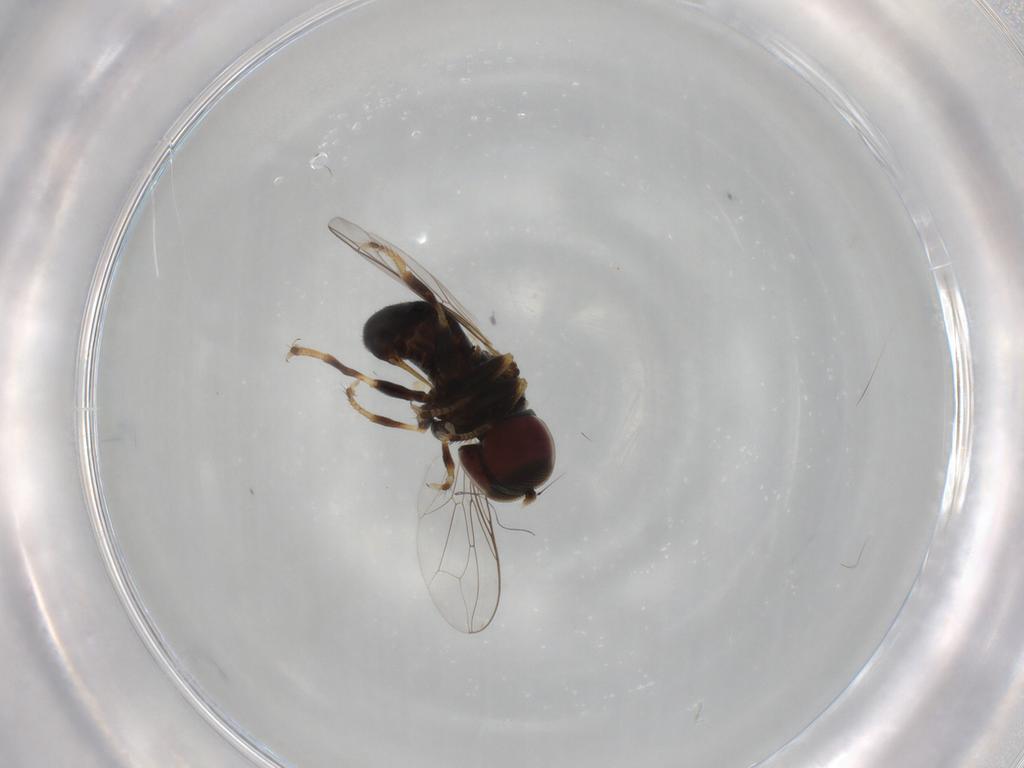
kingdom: Animalia
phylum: Arthropoda
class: Insecta
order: Diptera
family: Pipunculidae
